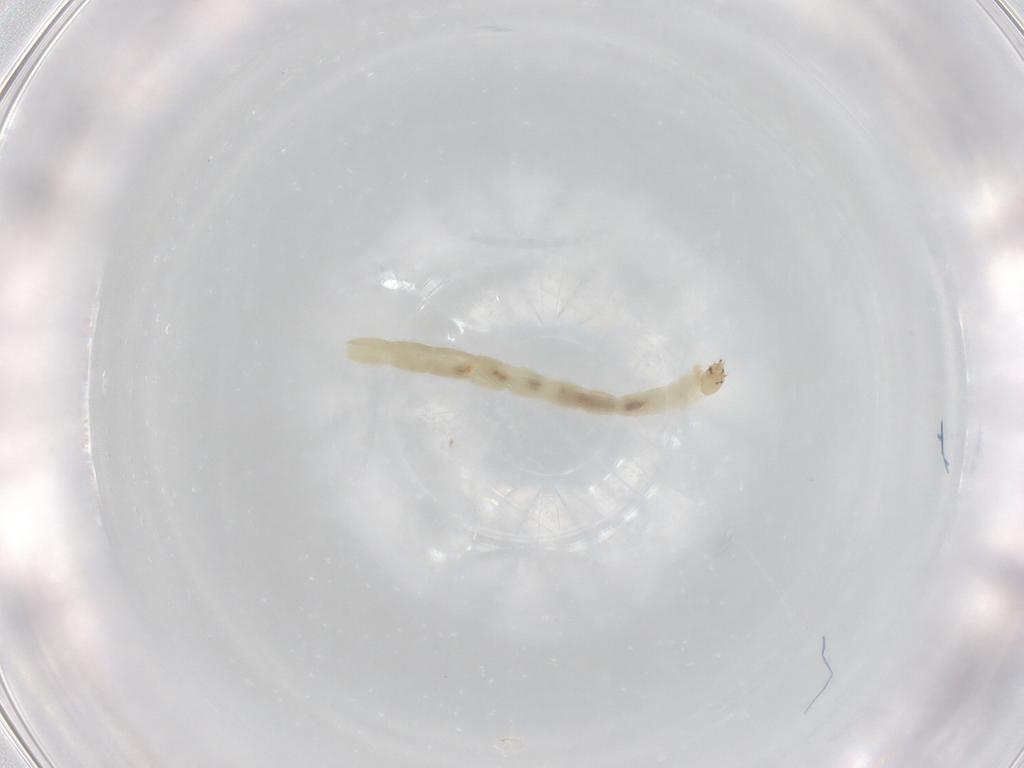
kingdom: Animalia
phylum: Arthropoda
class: Insecta
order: Diptera
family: Chironomidae
